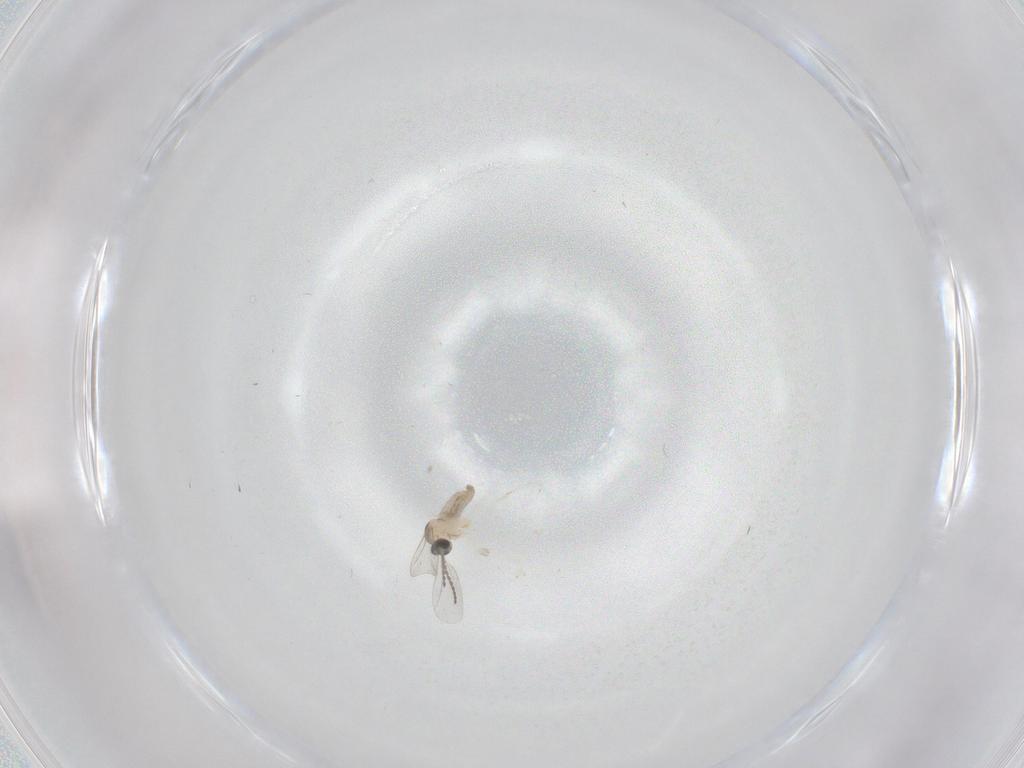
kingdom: Animalia
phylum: Arthropoda
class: Insecta
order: Diptera
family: Cecidomyiidae
